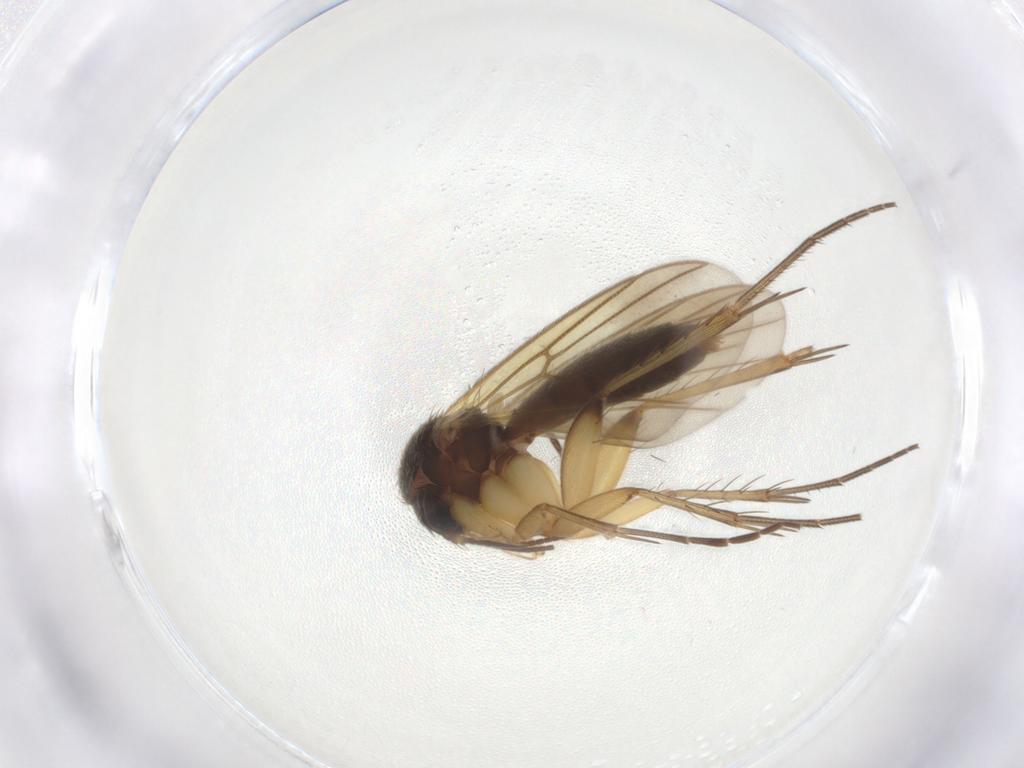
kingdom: Animalia
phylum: Arthropoda
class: Insecta
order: Diptera
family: Mycetophilidae
